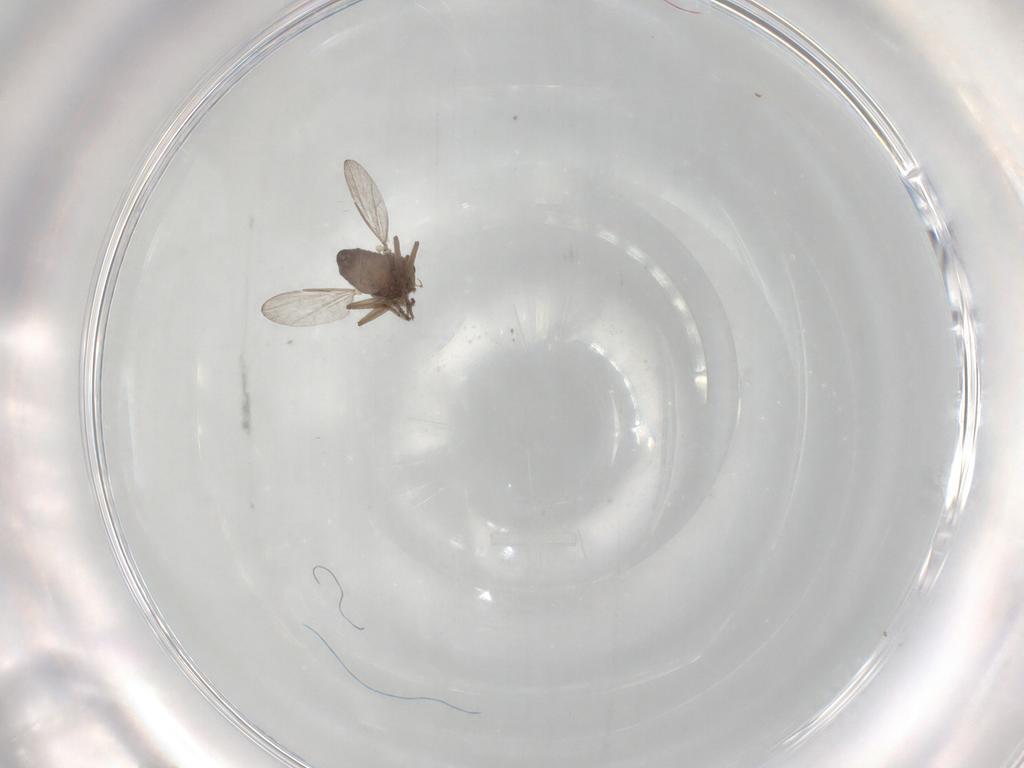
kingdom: Animalia
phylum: Arthropoda
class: Insecta
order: Diptera
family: Ceratopogonidae
